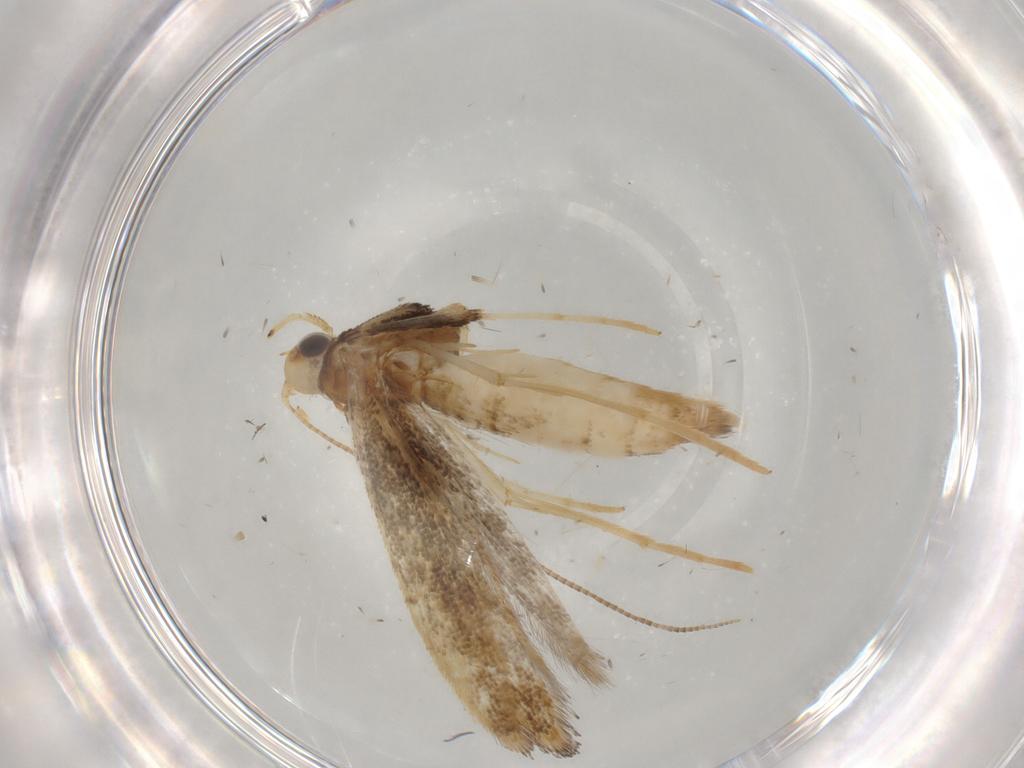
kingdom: Animalia
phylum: Arthropoda
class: Insecta
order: Lepidoptera
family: Gracillariidae
